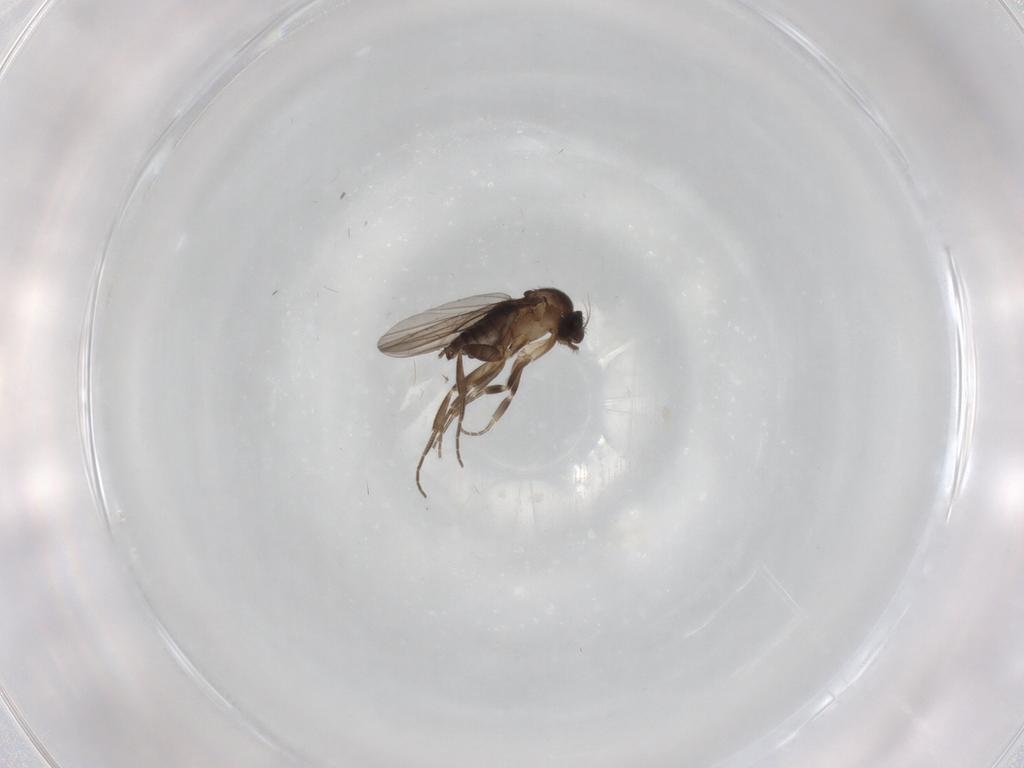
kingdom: Animalia
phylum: Arthropoda
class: Insecta
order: Diptera
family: Phoridae
